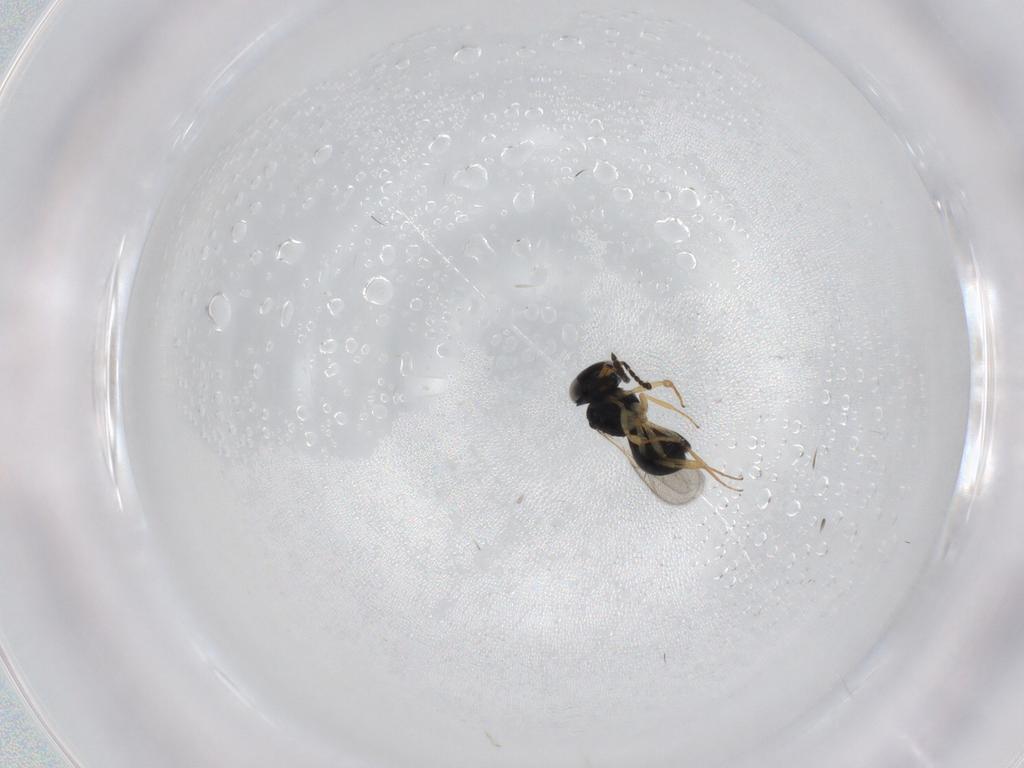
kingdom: Animalia
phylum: Arthropoda
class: Insecta
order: Hymenoptera
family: Scelionidae
